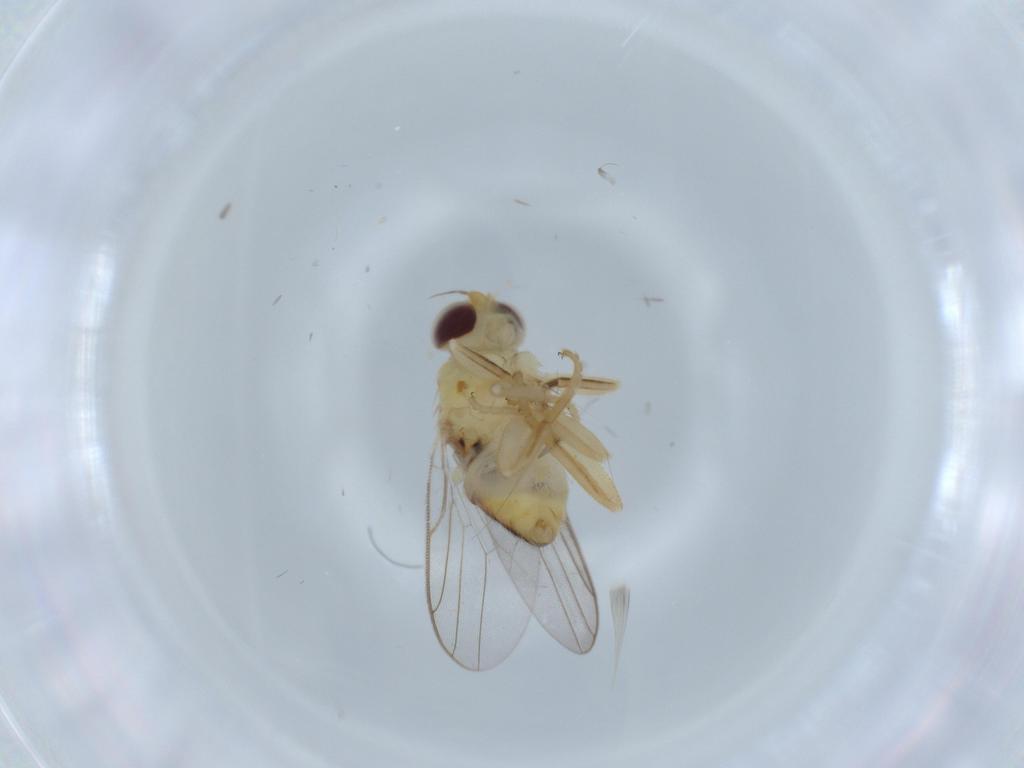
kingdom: Animalia
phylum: Arthropoda
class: Insecta
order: Diptera
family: Chloropidae
